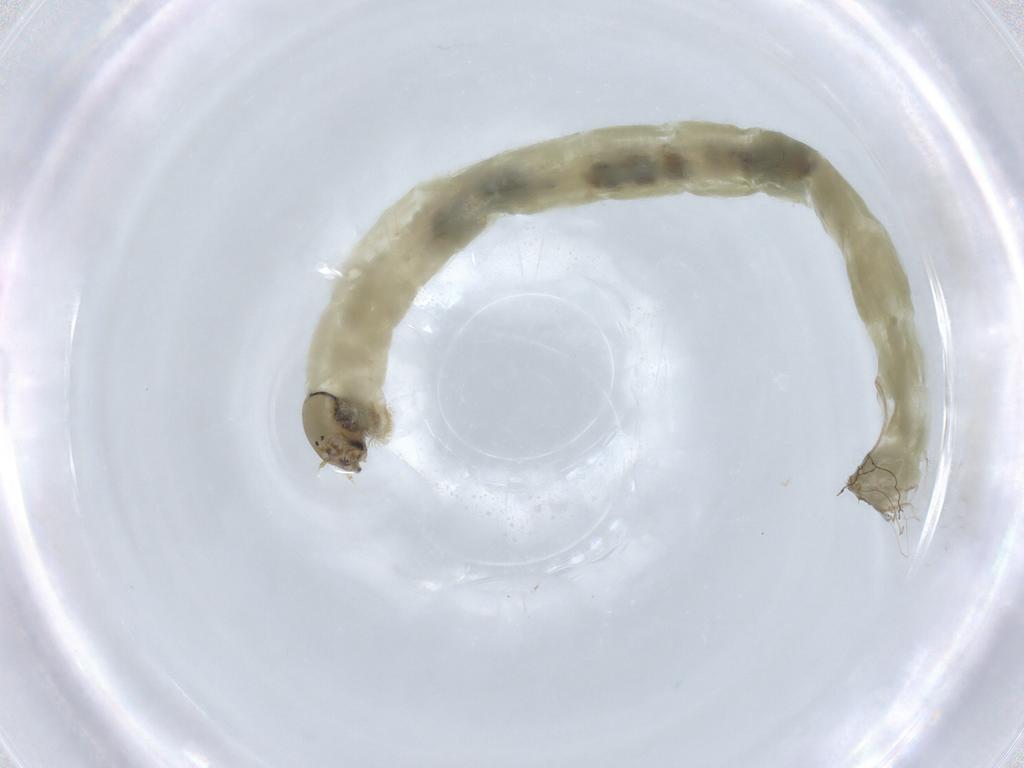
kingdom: Animalia
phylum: Arthropoda
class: Insecta
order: Diptera
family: Chironomidae
